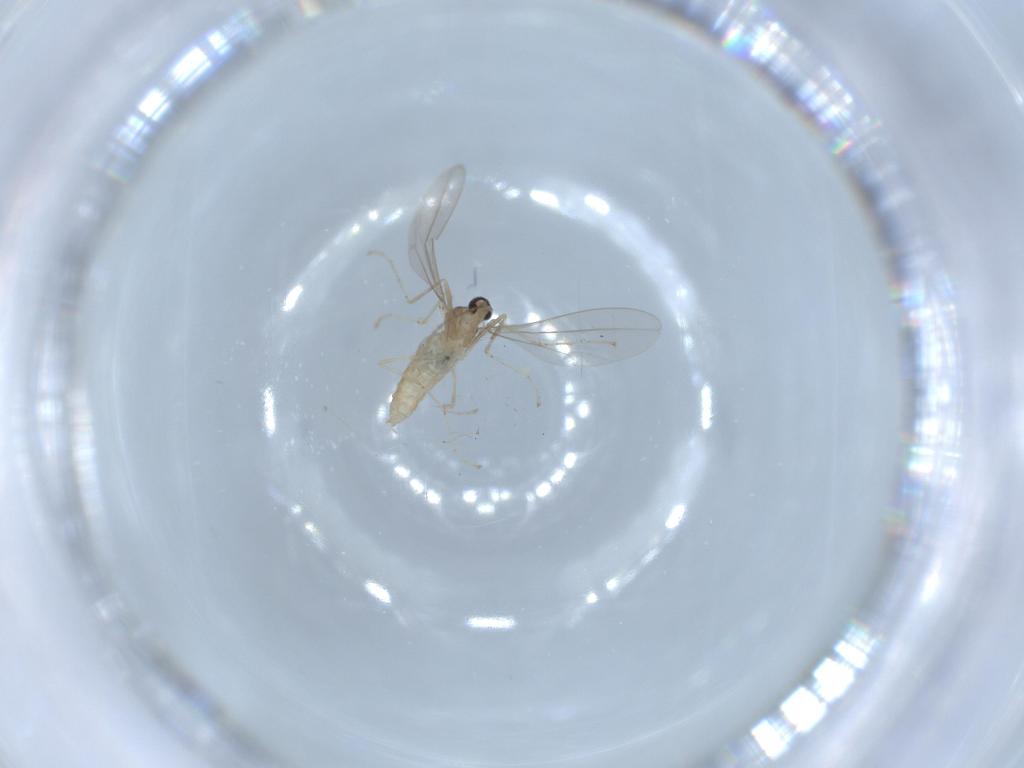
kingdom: Animalia
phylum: Arthropoda
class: Insecta
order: Diptera
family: Cecidomyiidae
